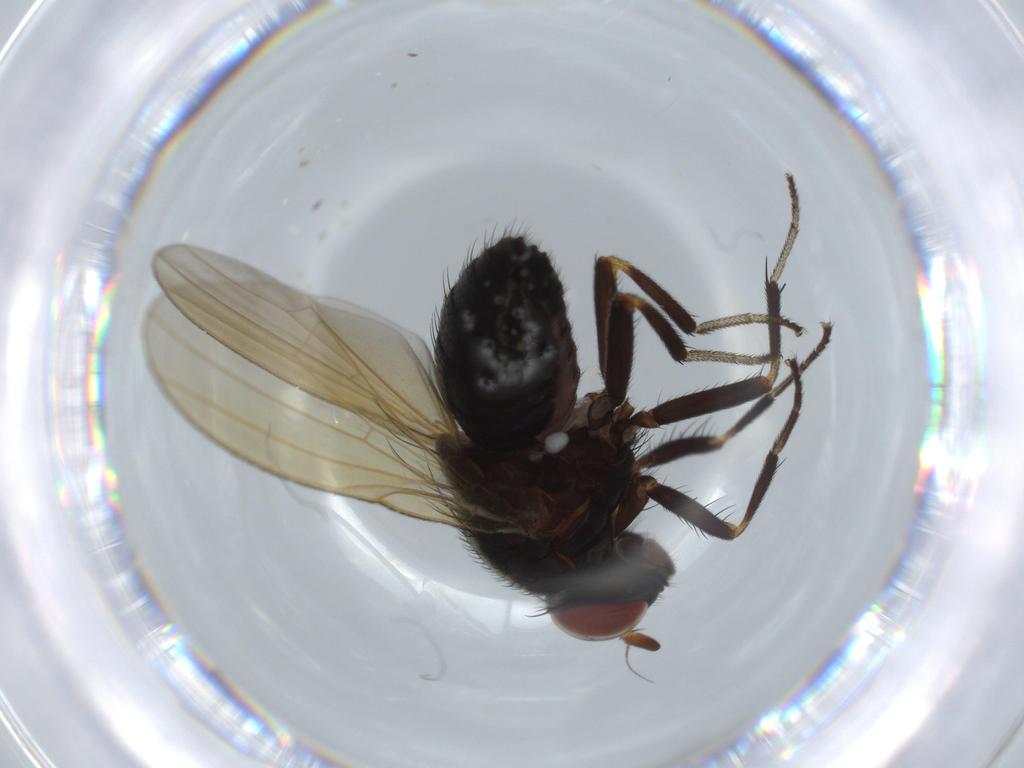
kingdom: Animalia
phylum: Arthropoda
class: Insecta
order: Diptera
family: Lauxaniidae
